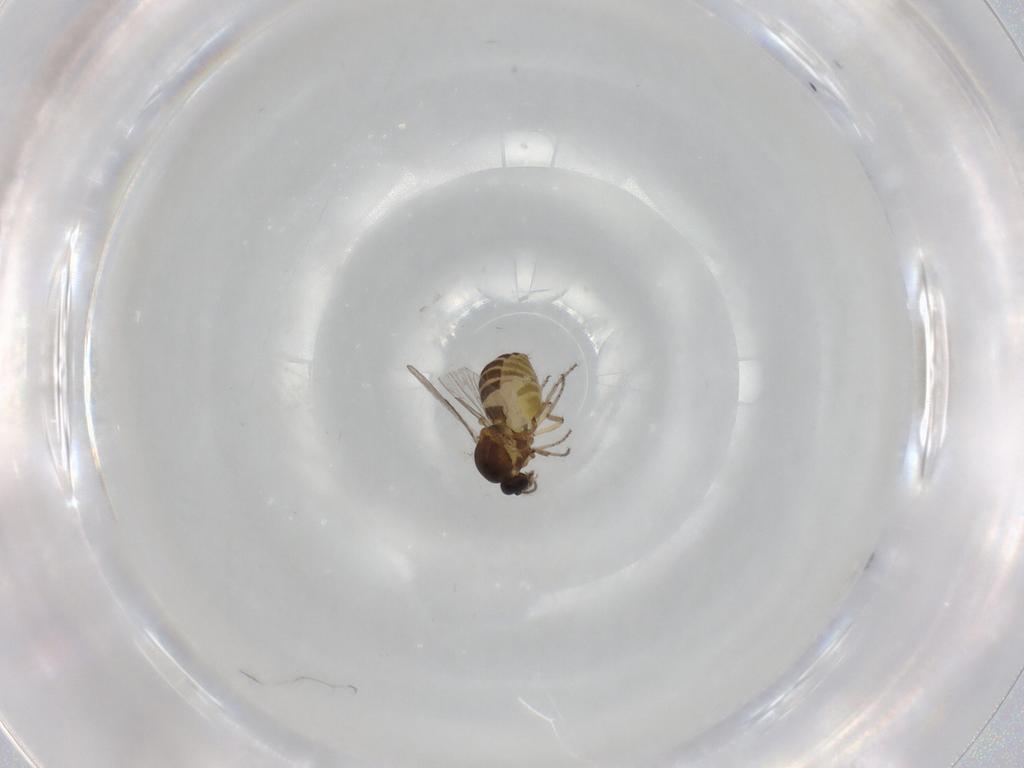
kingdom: Animalia
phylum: Arthropoda
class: Insecta
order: Diptera
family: Ceratopogonidae
